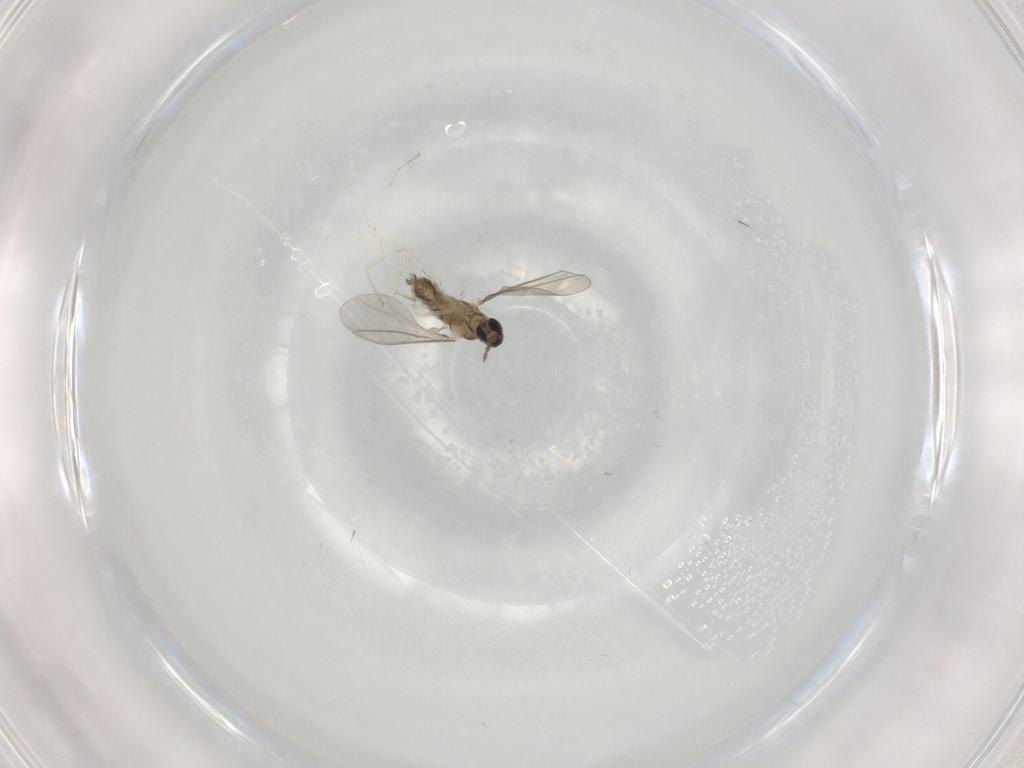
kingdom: Animalia
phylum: Arthropoda
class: Insecta
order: Diptera
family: Cecidomyiidae
